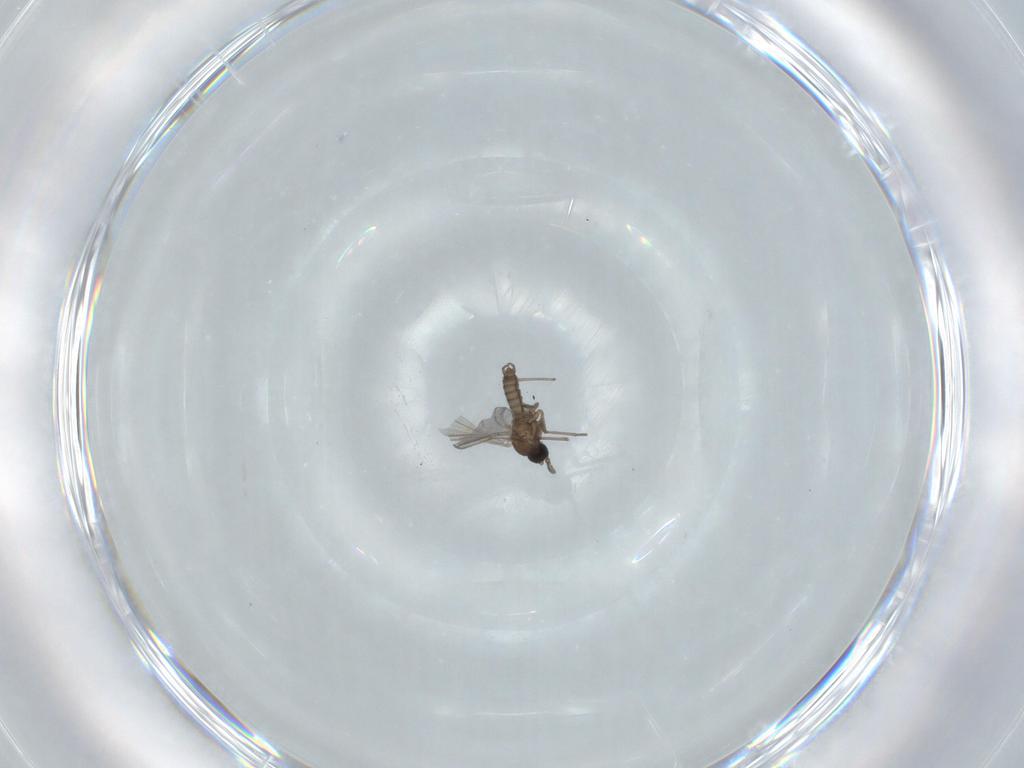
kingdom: Animalia
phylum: Arthropoda
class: Insecta
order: Diptera
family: Sciaridae
